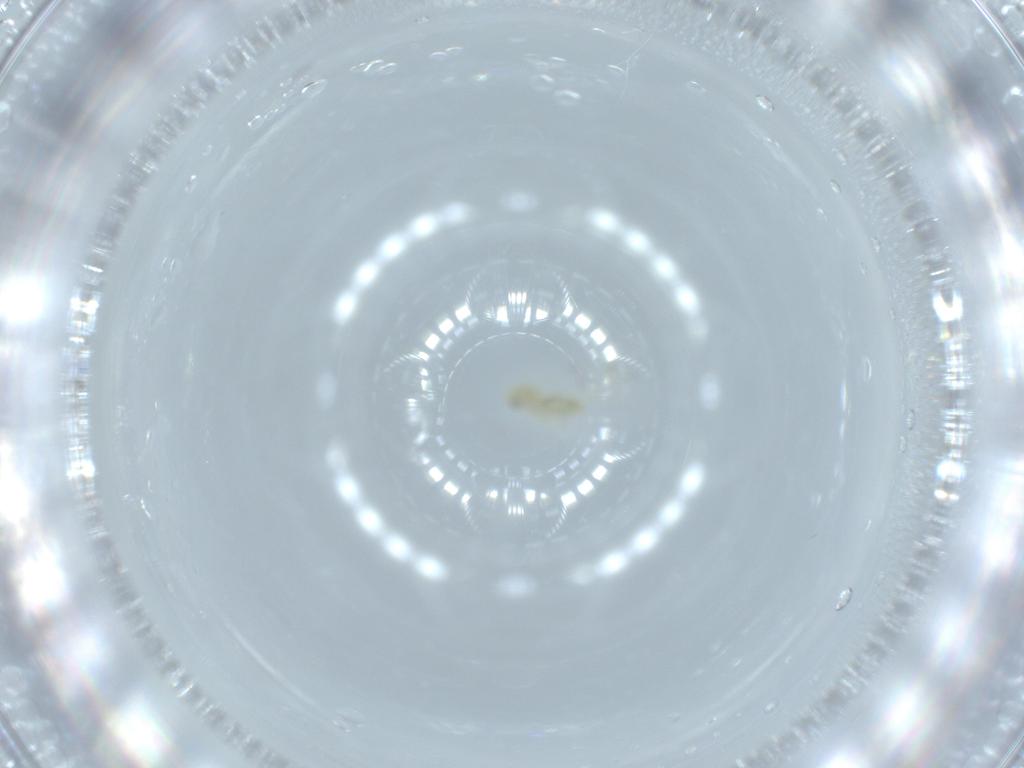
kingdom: Animalia
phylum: Arthropoda
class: Insecta
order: Hemiptera
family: Aleyrodidae
